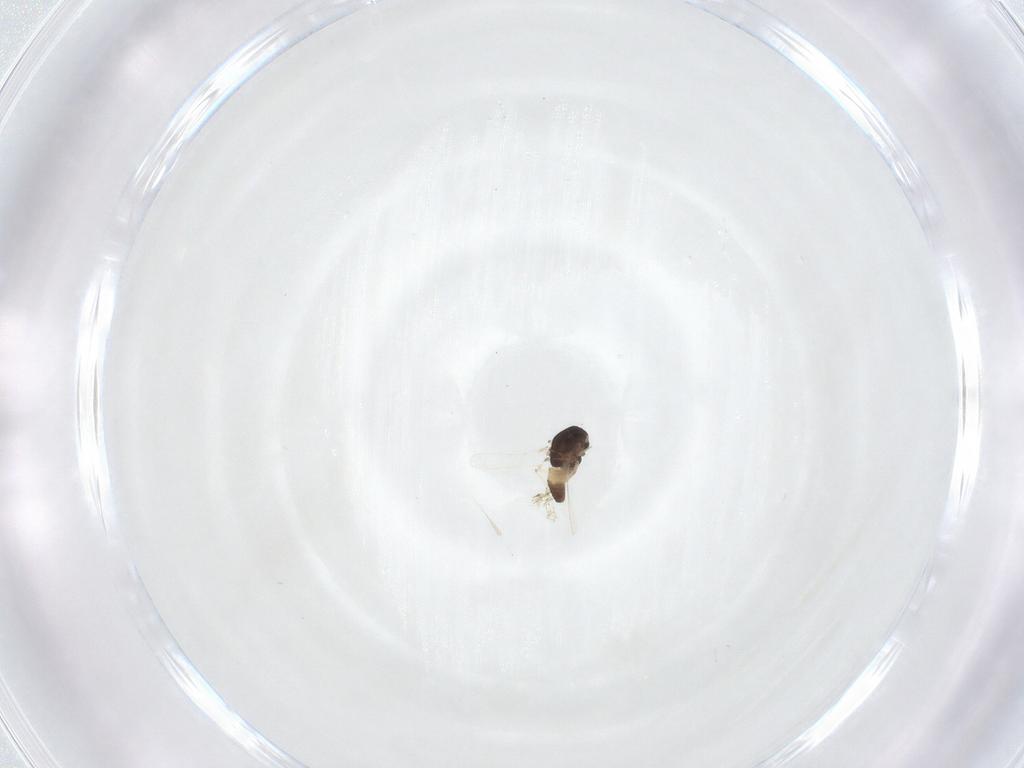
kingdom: Animalia
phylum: Arthropoda
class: Insecta
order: Diptera
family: Chironomidae
